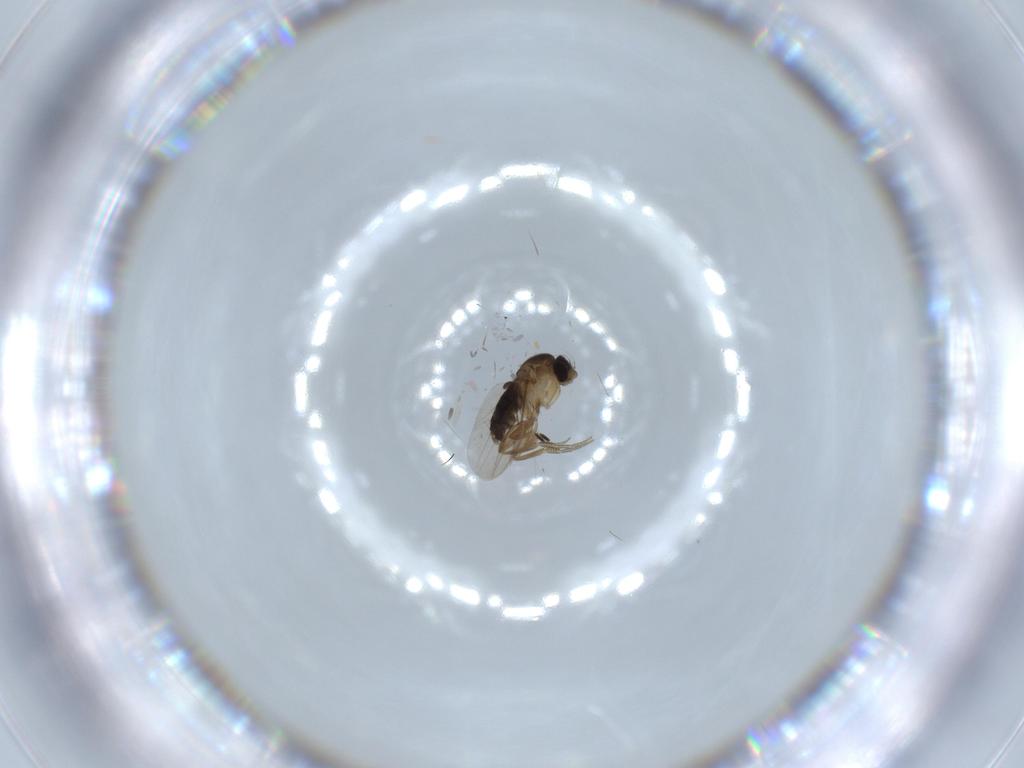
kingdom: Animalia
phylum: Arthropoda
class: Insecta
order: Diptera
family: Phoridae
